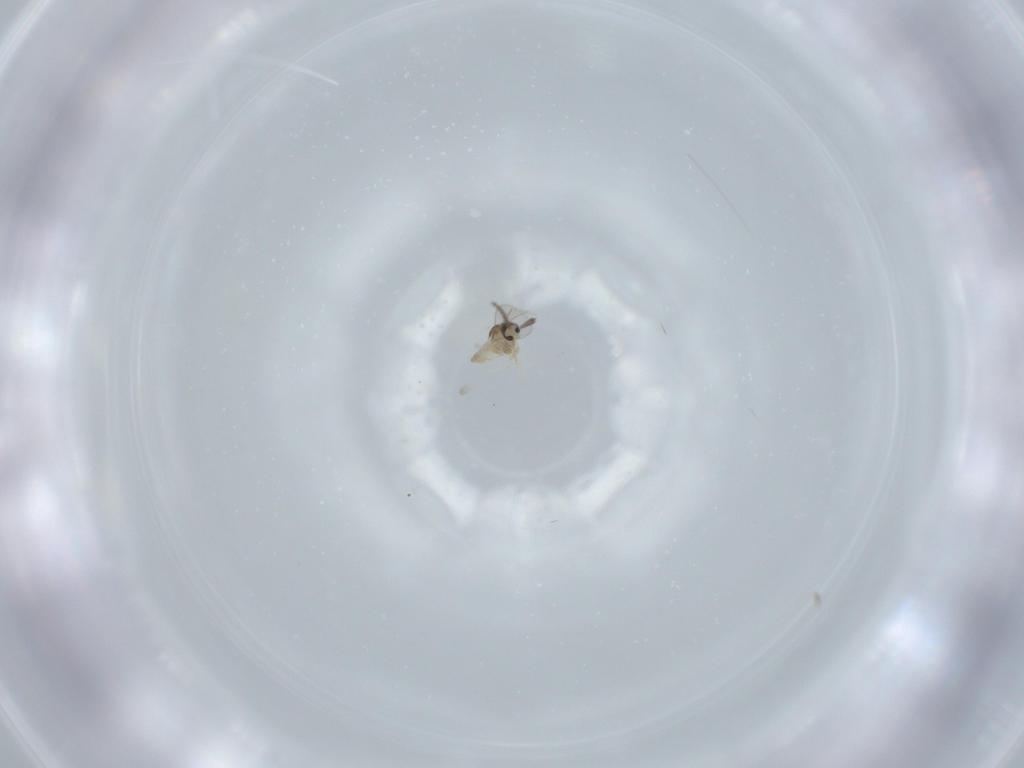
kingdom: Animalia
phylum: Arthropoda
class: Insecta
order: Diptera
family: Cecidomyiidae
